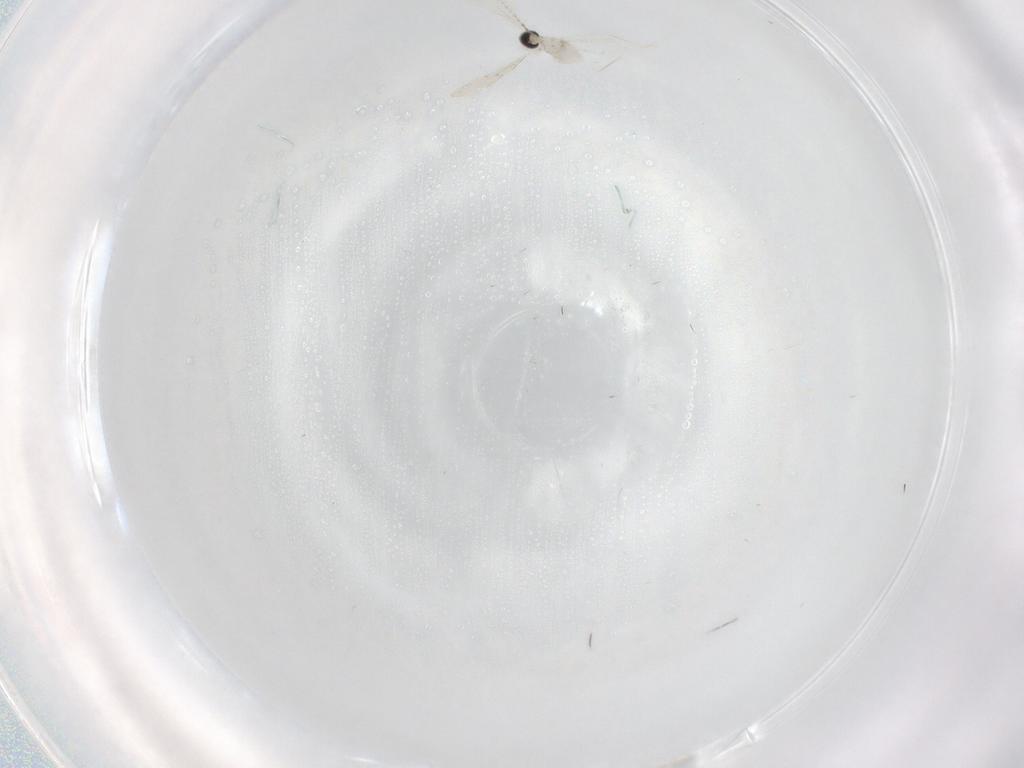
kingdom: Animalia
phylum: Arthropoda
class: Insecta
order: Diptera
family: Cecidomyiidae
